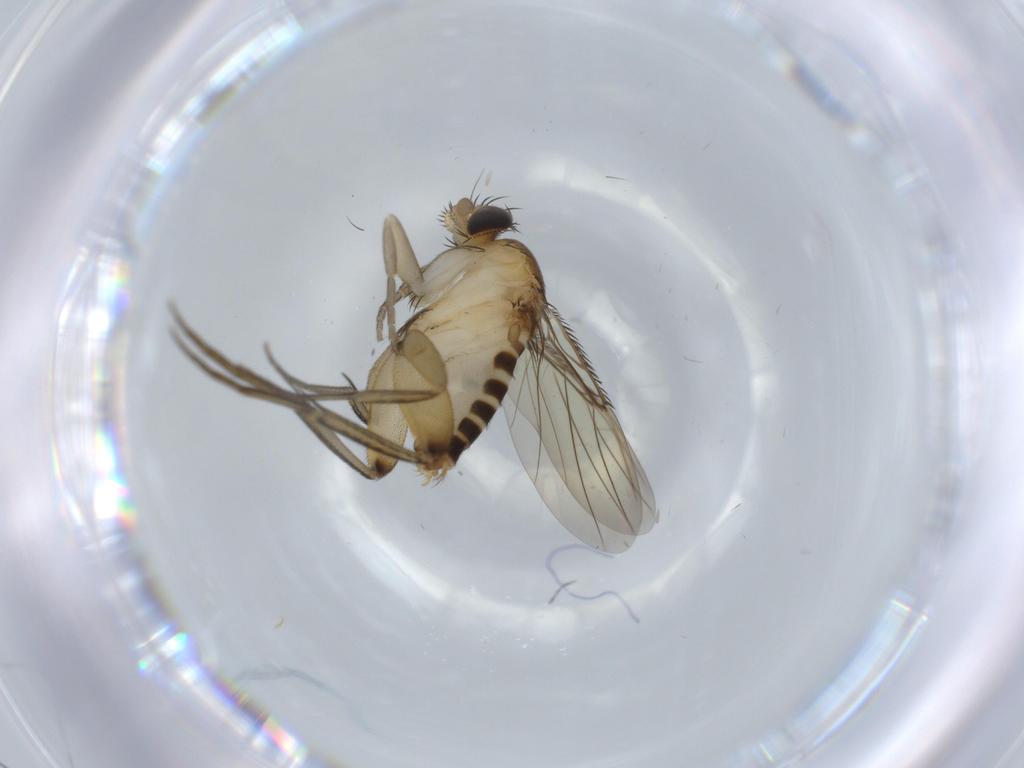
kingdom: Animalia
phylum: Arthropoda
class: Insecta
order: Diptera
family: Phoridae
